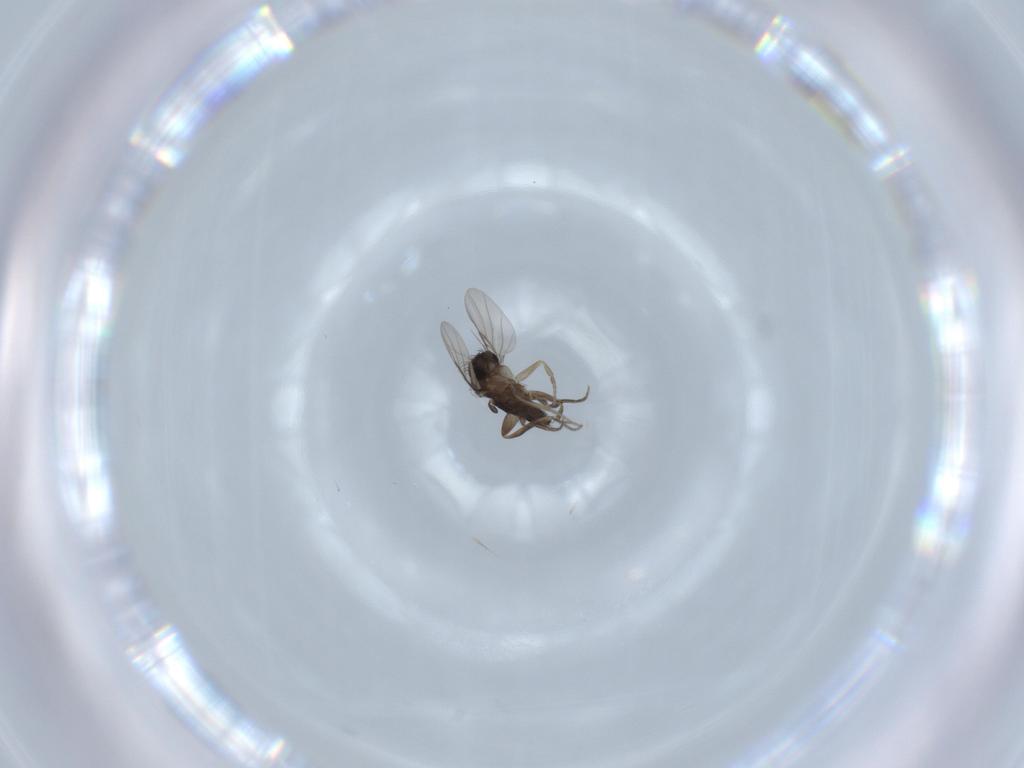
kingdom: Animalia
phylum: Arthropoda
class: Insecta
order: Diptera
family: Phoridae
